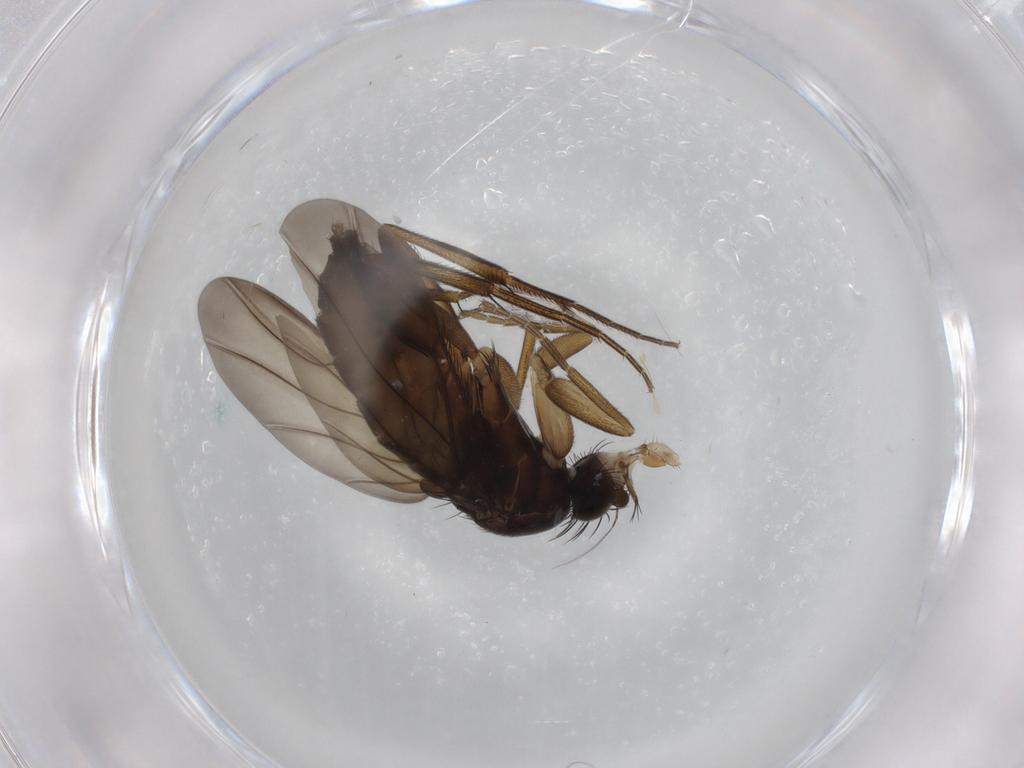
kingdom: Animalia
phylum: Arthropoda
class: Insecta
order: Diptera
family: Phoridae
